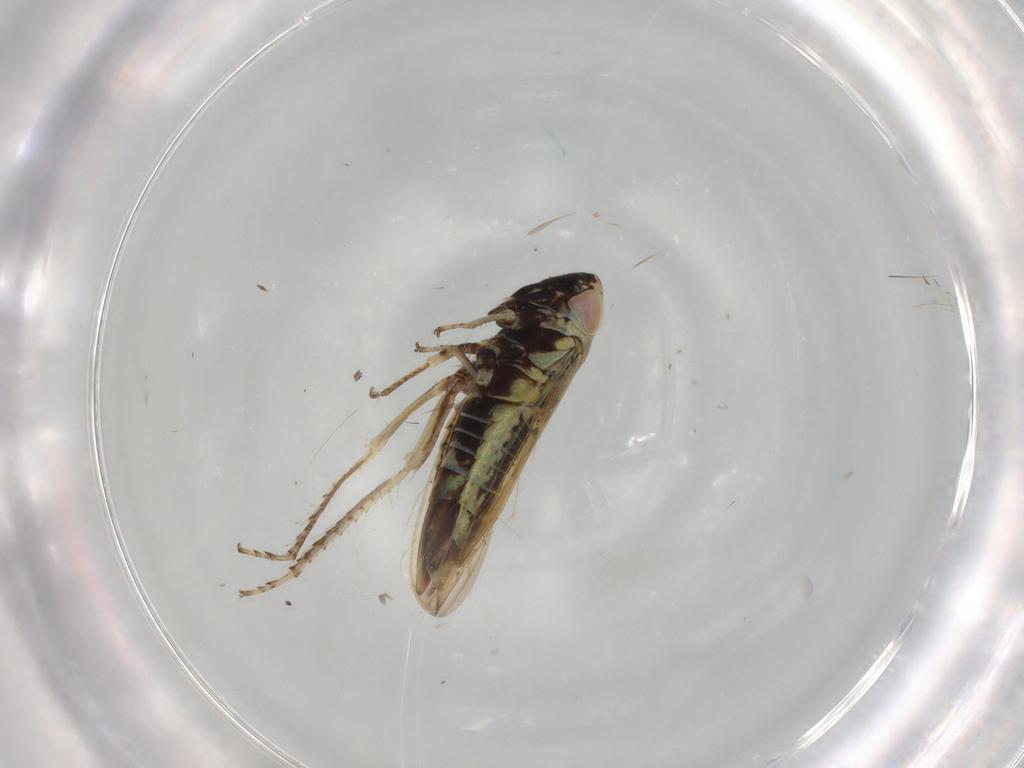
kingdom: Animalia
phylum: Arthropoda
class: Insecta
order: Hemiptera
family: Cicadellidae
